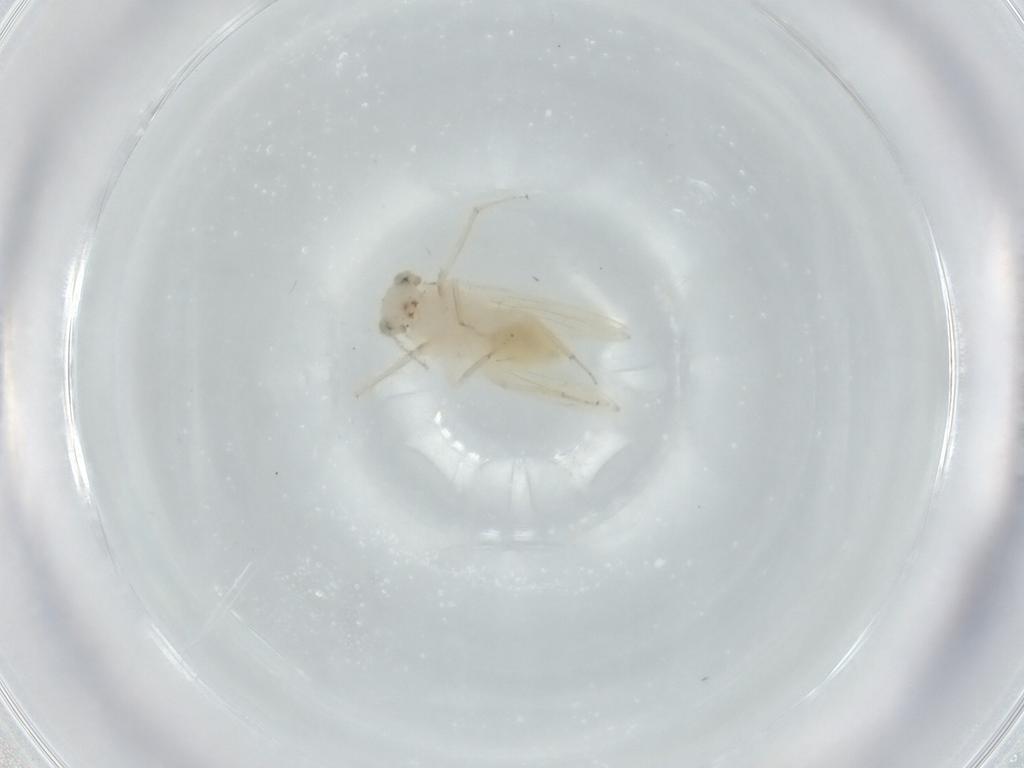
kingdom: Animalia
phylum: Arthropoda
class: Insecta
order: Psocodea
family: Lepidopsocidae
